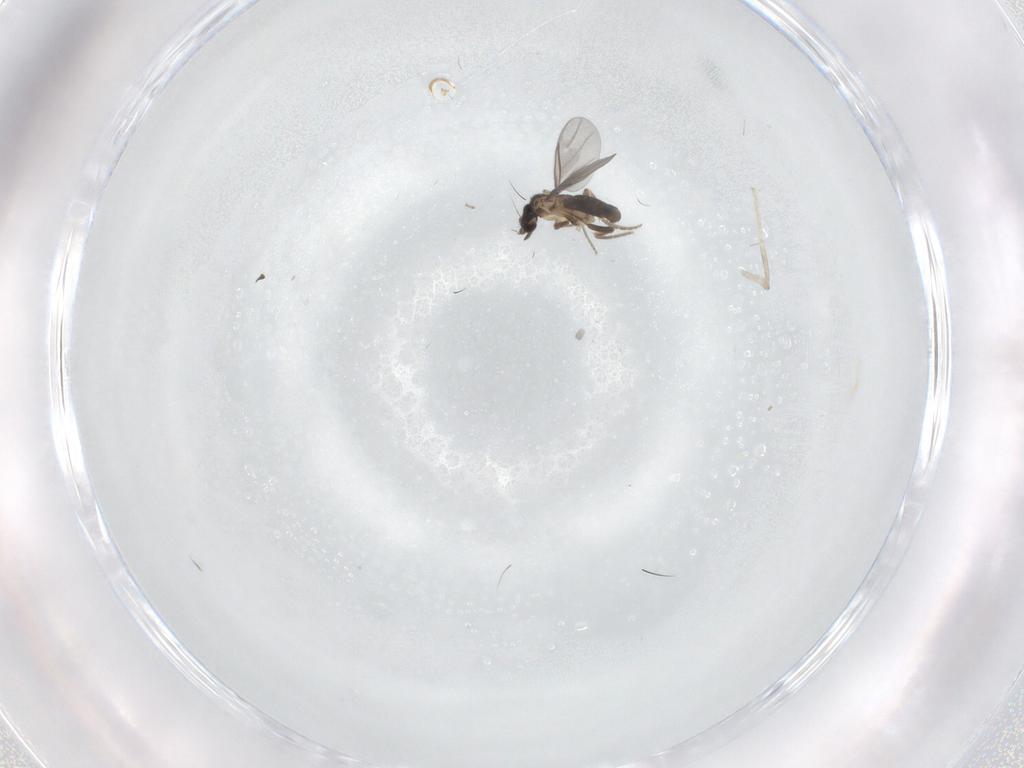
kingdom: Animalia
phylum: Arthropoda
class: Insecta
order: Diptera
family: Cecidomyiidae
